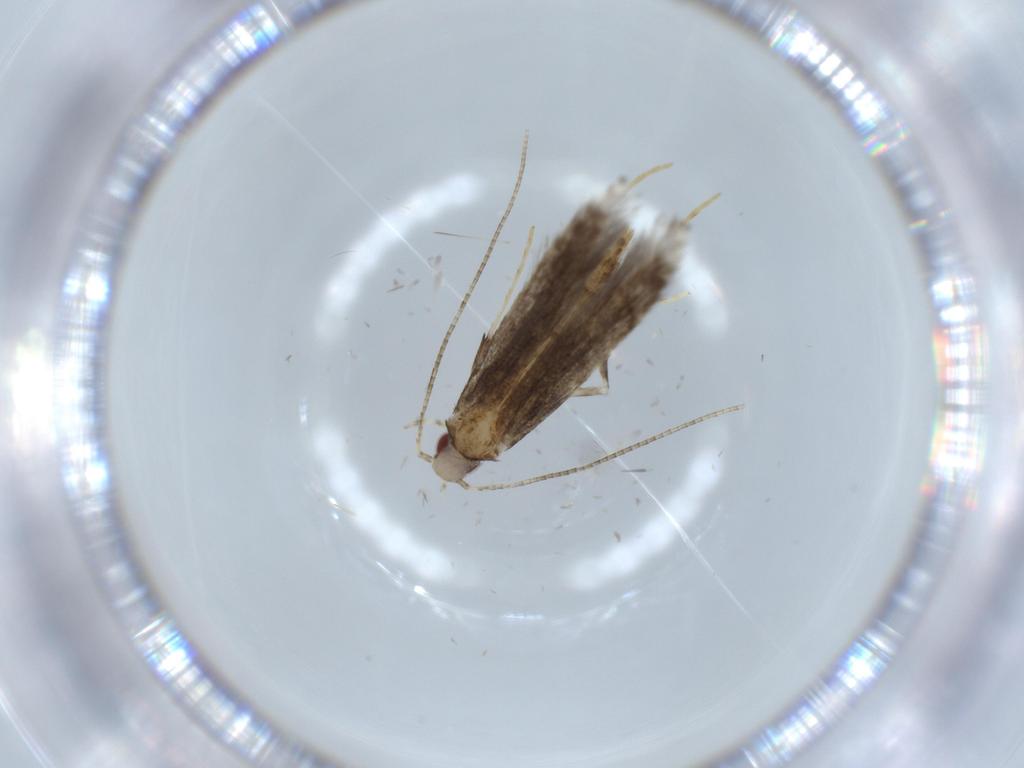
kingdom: Animalia
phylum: Arthropoda
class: Insecta
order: Lepidoptera
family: Gracillariidae
